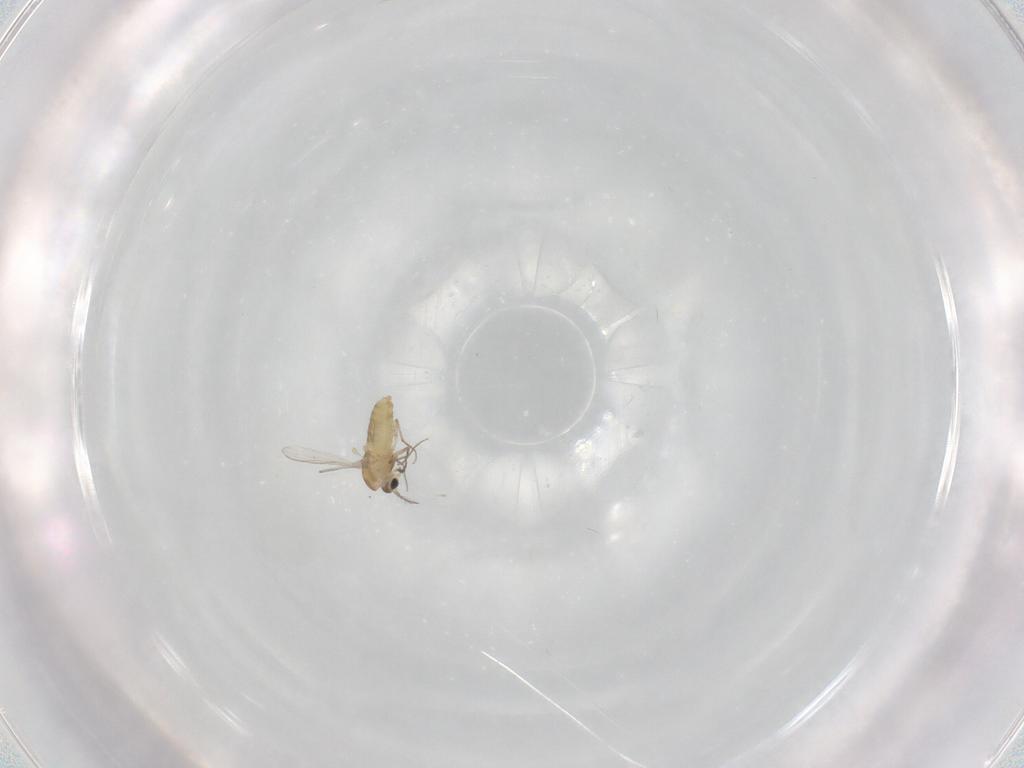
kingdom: Animalia
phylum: Arthropoda
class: Insecta
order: Diptera
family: Chironomidae
